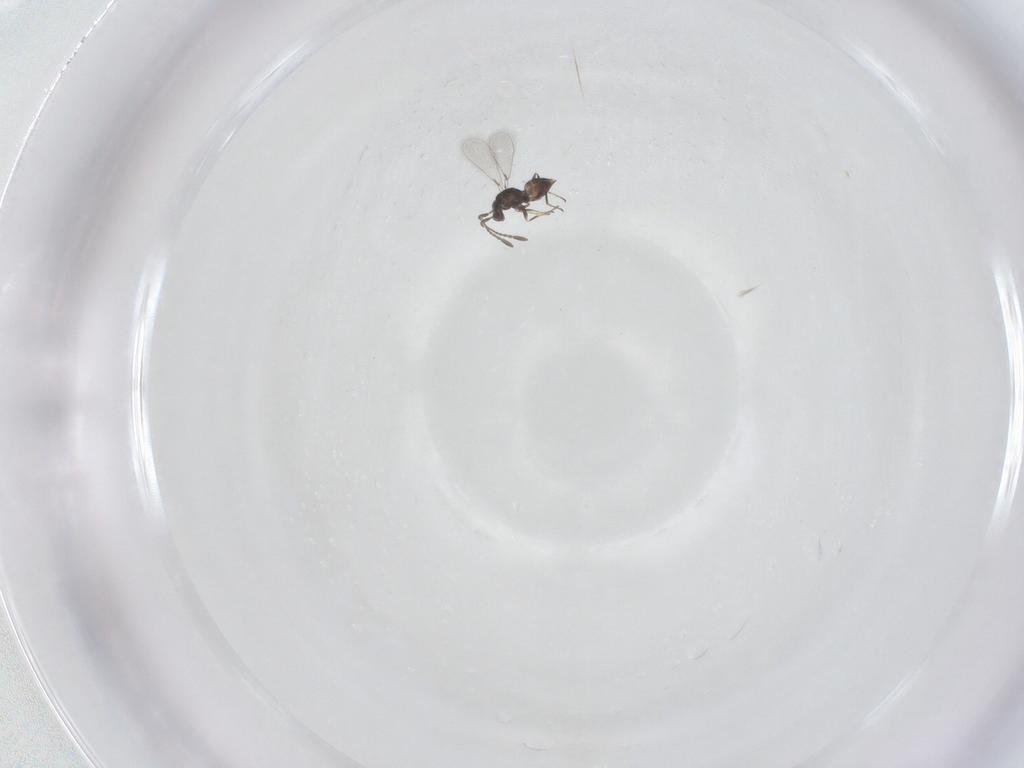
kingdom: Animalia
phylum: Arthropoda
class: Insecta
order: Hymenoptera
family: Mymaridae
